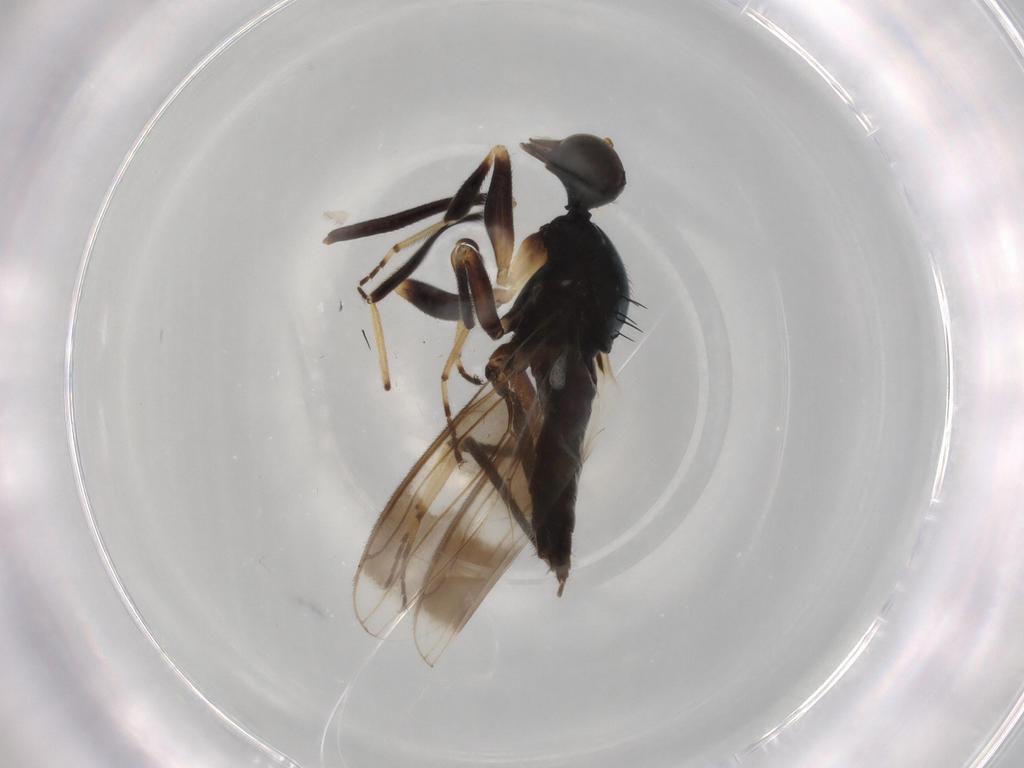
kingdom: Animalia
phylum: Arthropoda
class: Insecta
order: Diptera
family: Hybotidae
